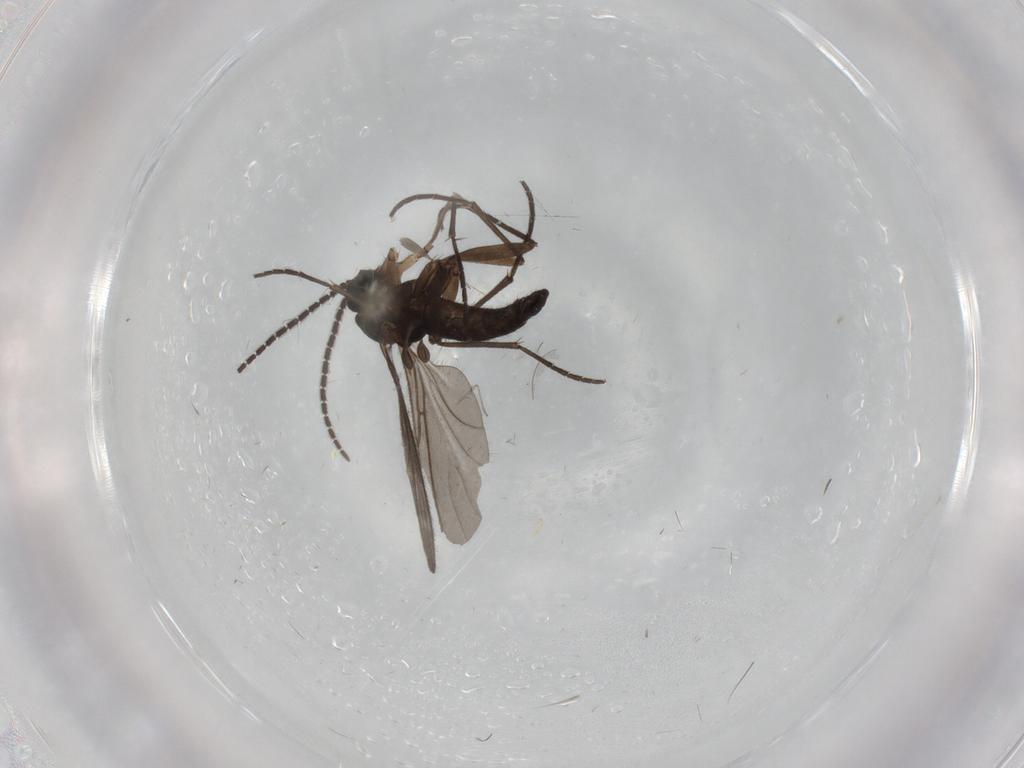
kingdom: Animalia
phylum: Arthropoda
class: Insecta
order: Diptera
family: Sciaridae
